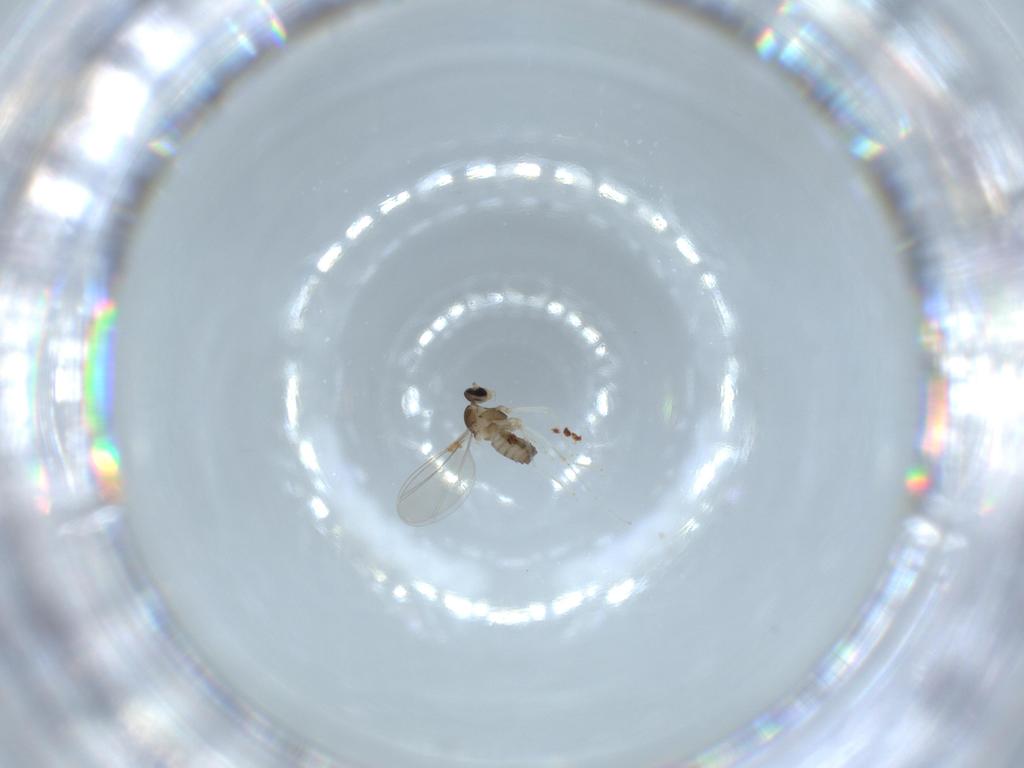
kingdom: Animalia
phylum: Arthropoda
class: Insecta
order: Diptera
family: Cecidomyiidae
